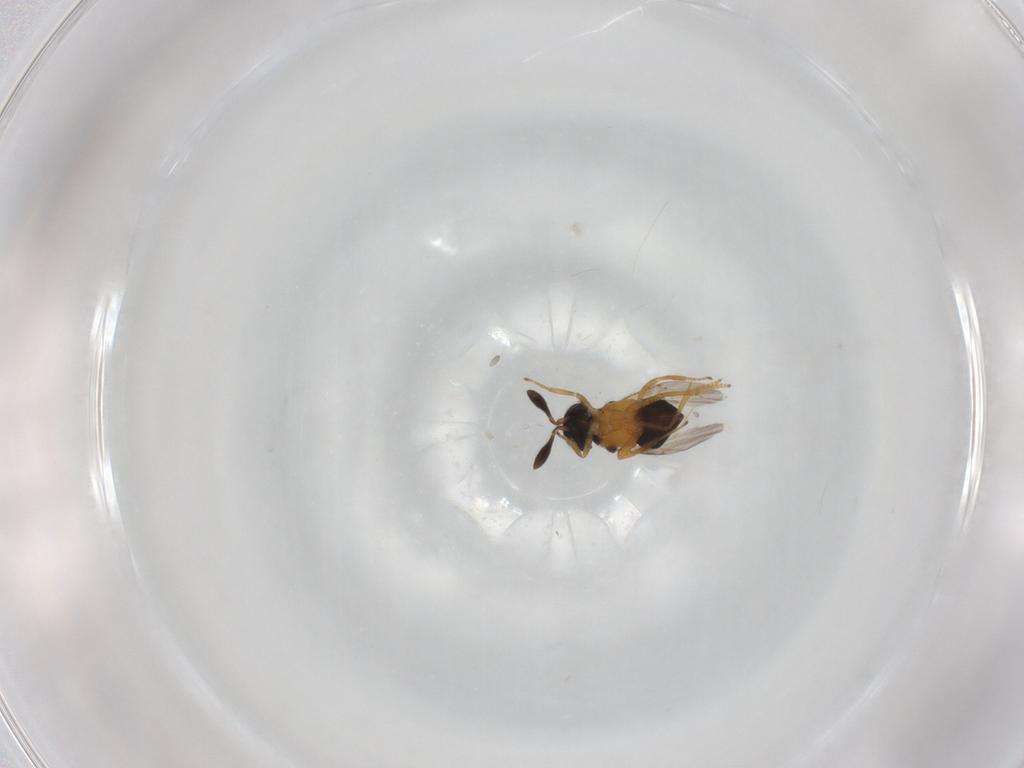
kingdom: Animalia
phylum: Arthropoda
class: Insecta
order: Hymenoptera
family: Encyrtidae
